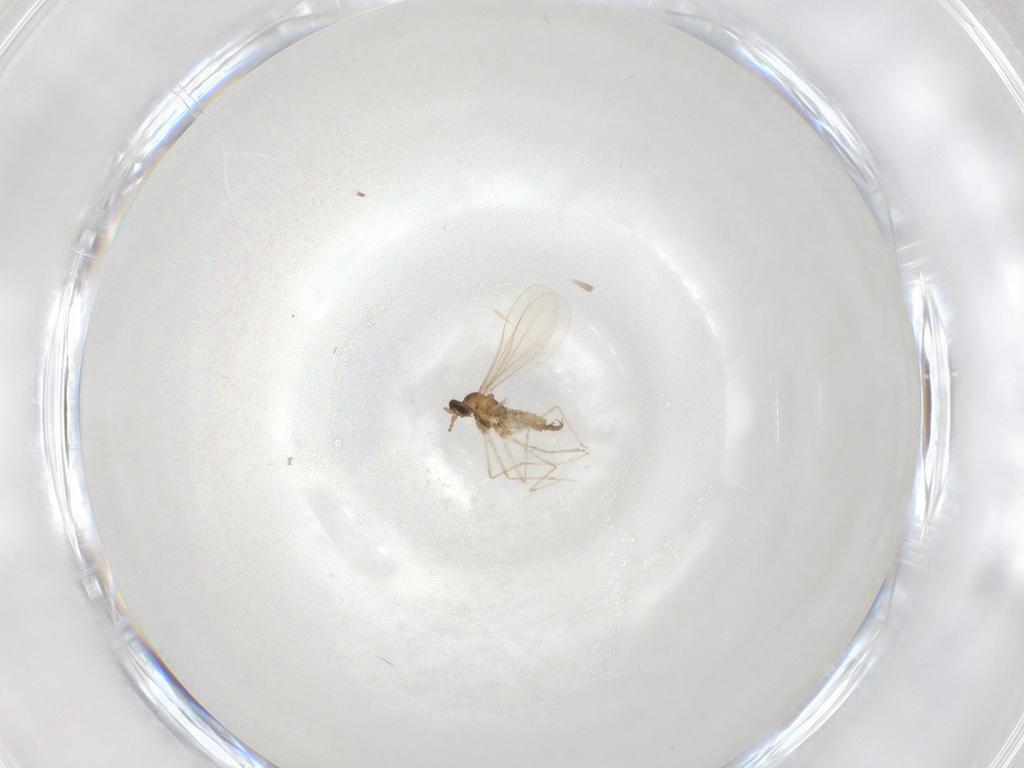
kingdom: Animalia
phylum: Arthropoda
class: Insecta
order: Diptera
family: Cecidomyiidae
